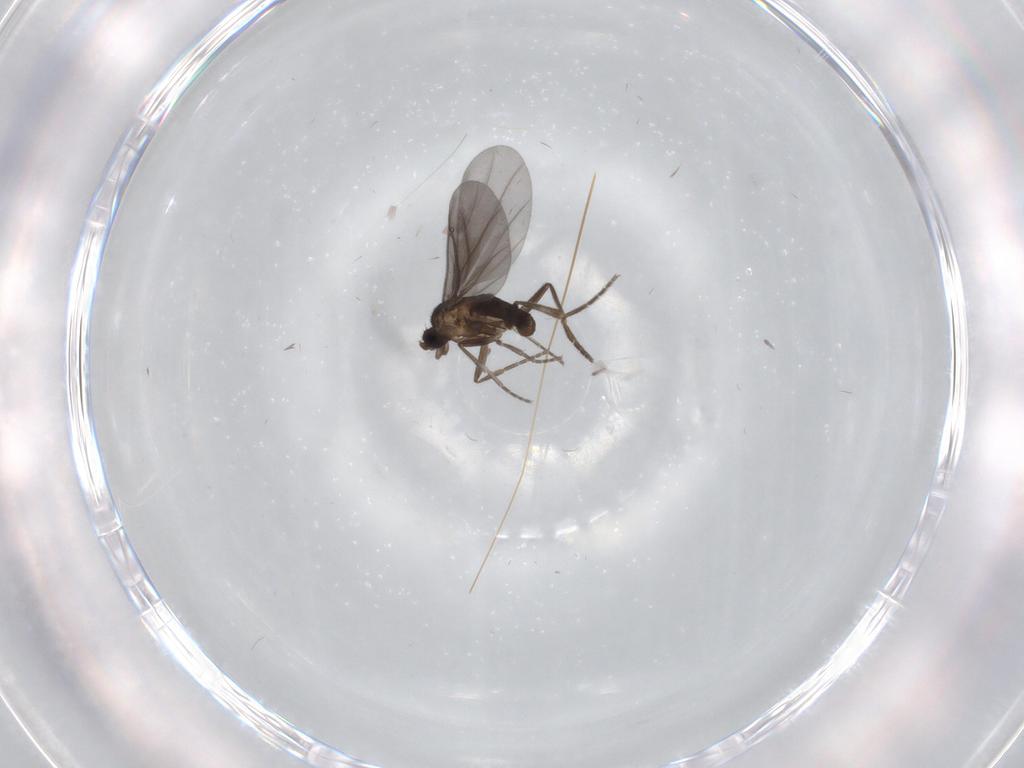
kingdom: Animalia
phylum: Arthropoda
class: Insecta
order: Diptera
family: Phoridae
